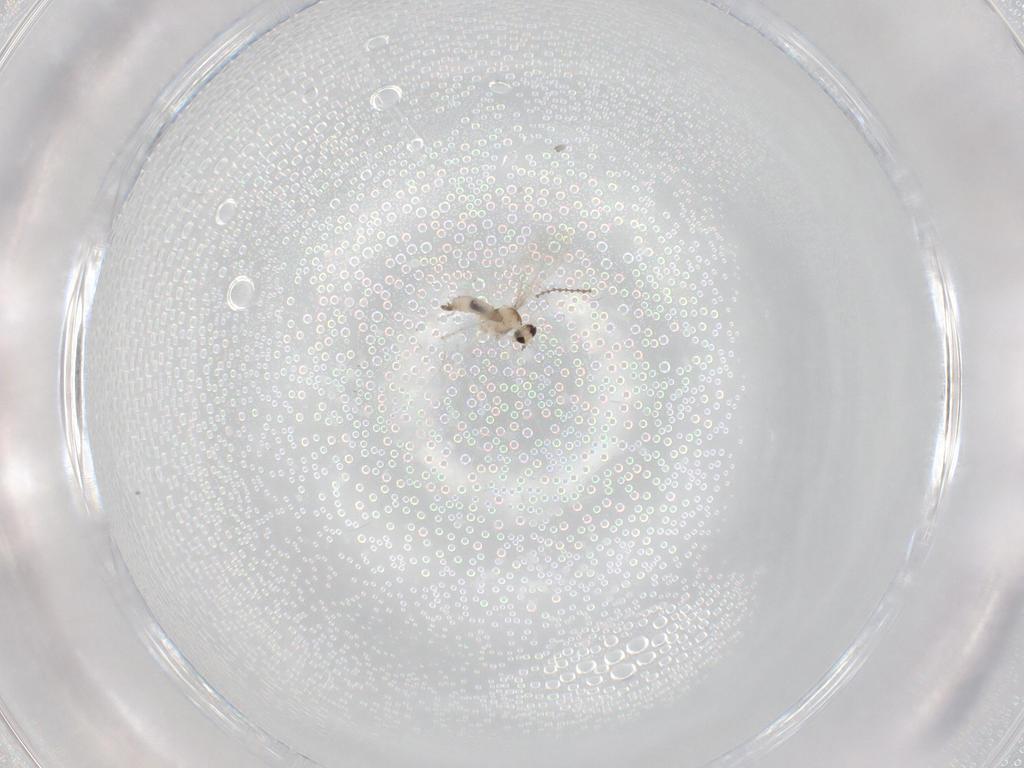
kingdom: Animalia
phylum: Arthropoda
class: Insecta
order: Diptera
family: Cecidomyiidae
